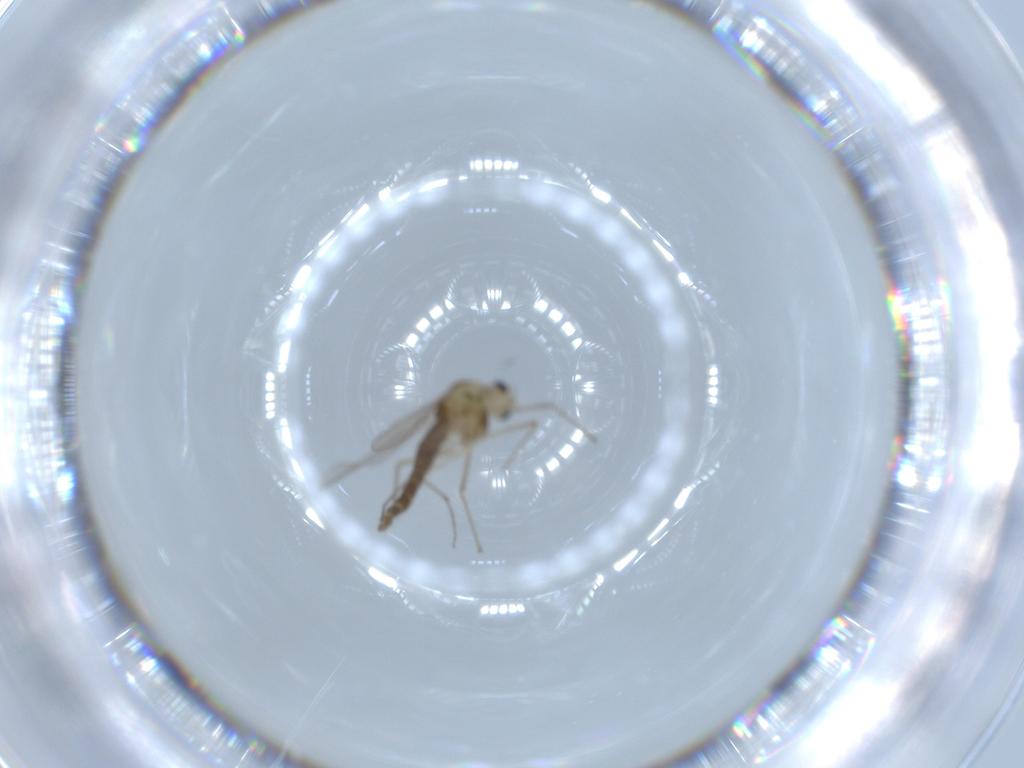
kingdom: Animalia
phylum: Arthropoda
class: Insecta
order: Diptera
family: Chironomidae
